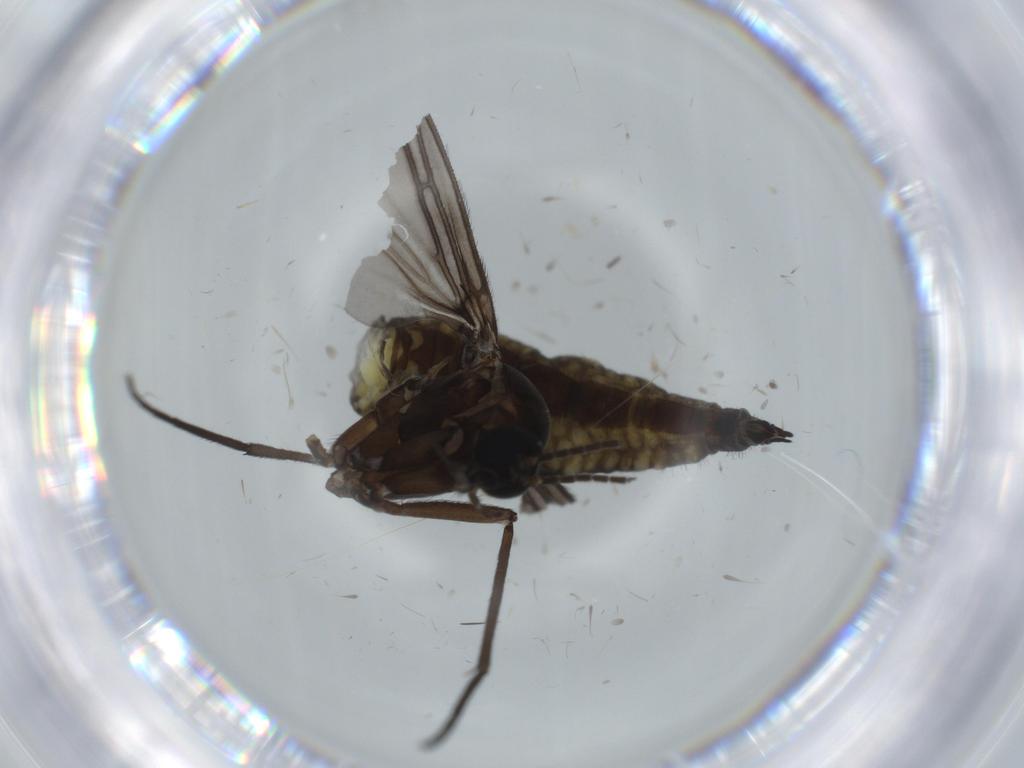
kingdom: Animalia
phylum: Arthropoda
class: Insecta
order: Diptera
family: Sciaridae
